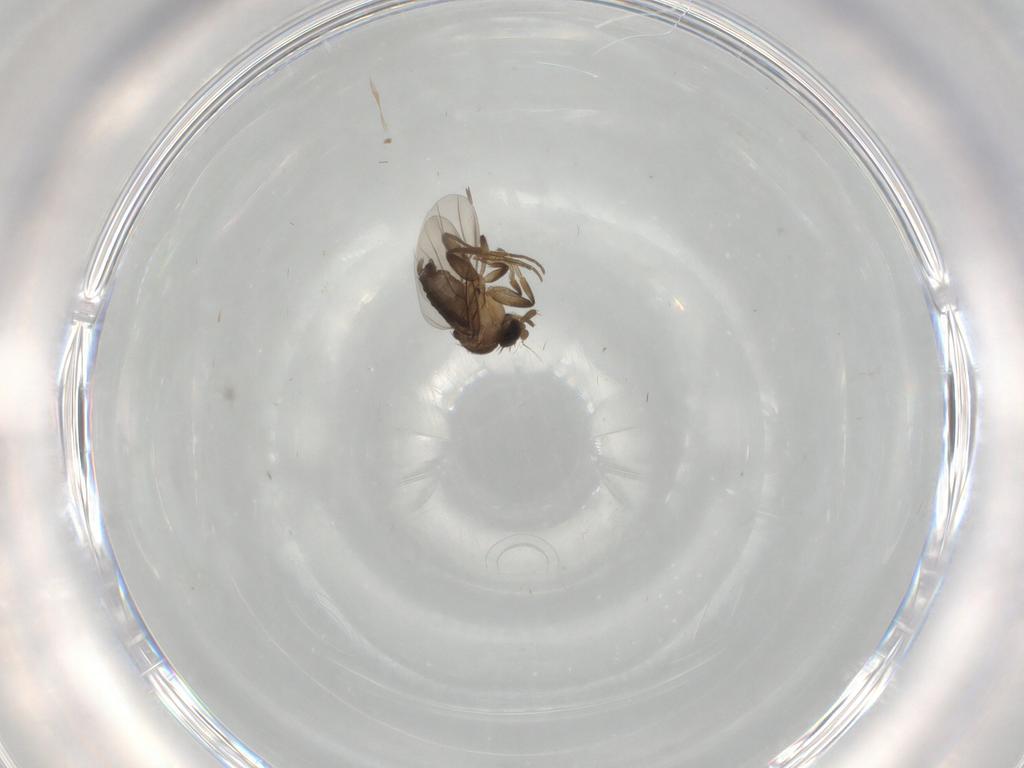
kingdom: Animalia
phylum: Arthropoda
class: Insecta
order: Diptera
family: Phoridae
